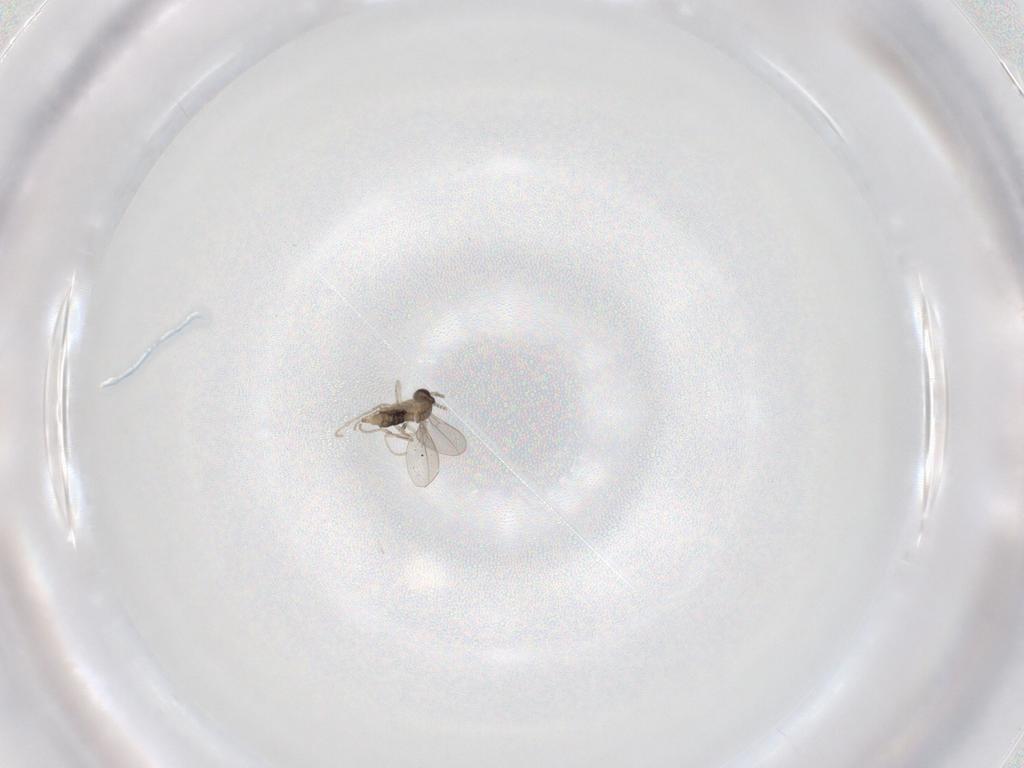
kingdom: Animalia
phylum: Arthropoda
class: Insecta
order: Diptera
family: Cecidomyiidae
